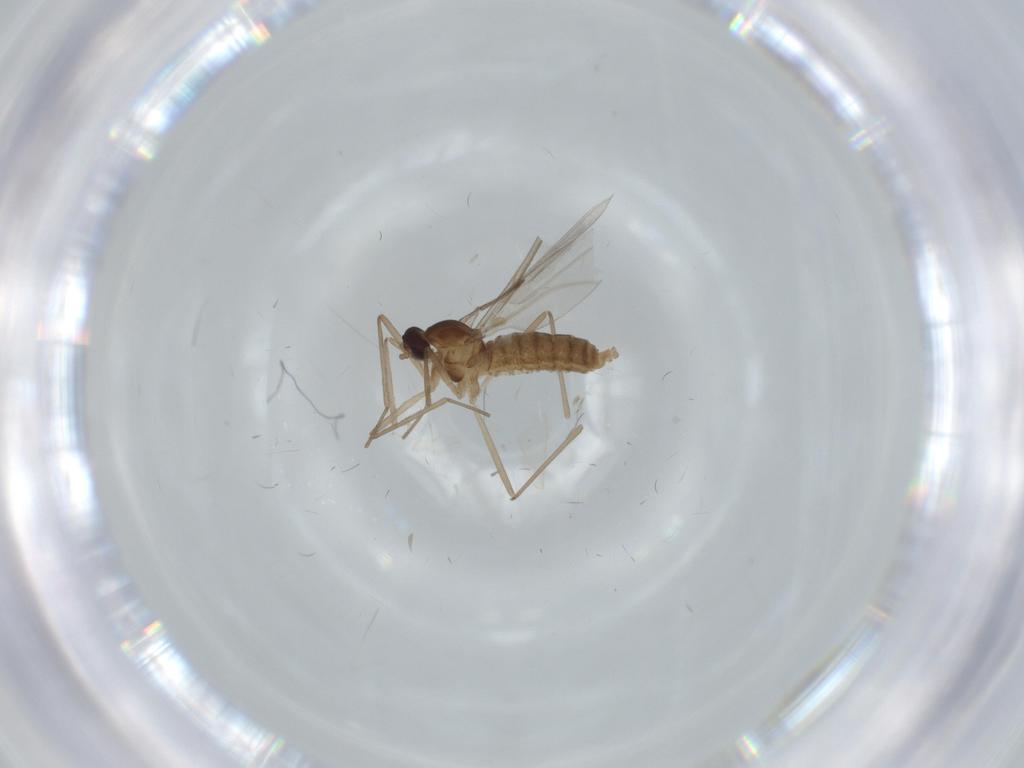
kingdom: Animalia
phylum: Arthropoda
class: Insecta
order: Diptera
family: Cecidomyiidae
